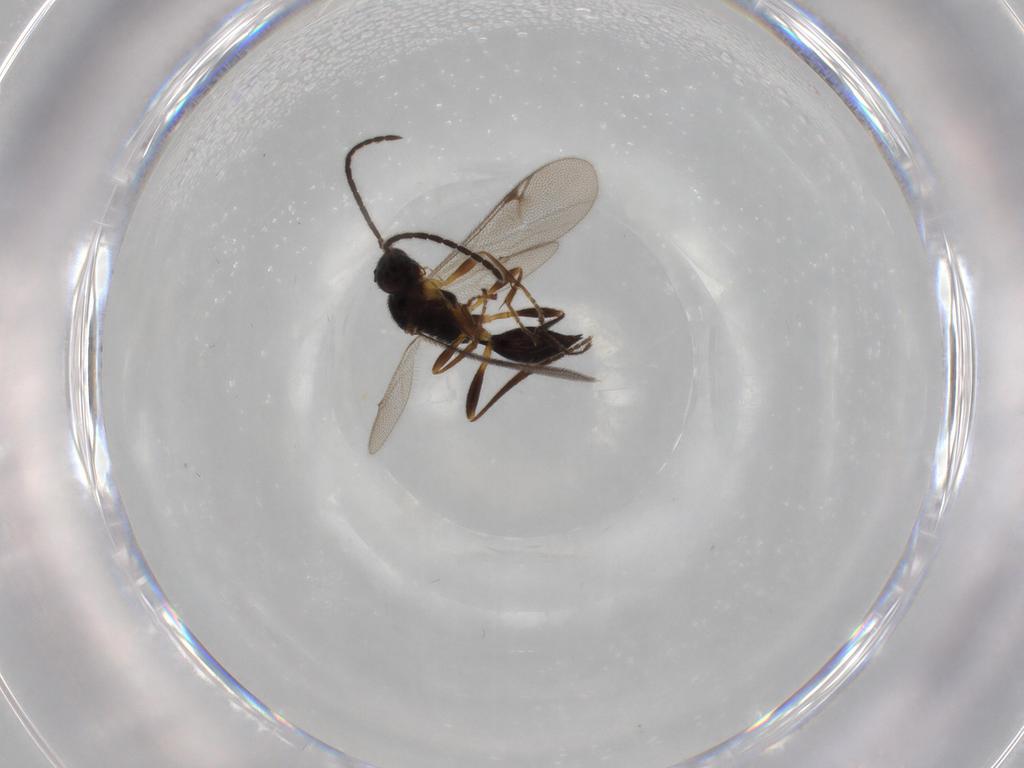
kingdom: Animalia
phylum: Arthropoda
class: Insecta
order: Hymenoptera
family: Proctotrupidae
